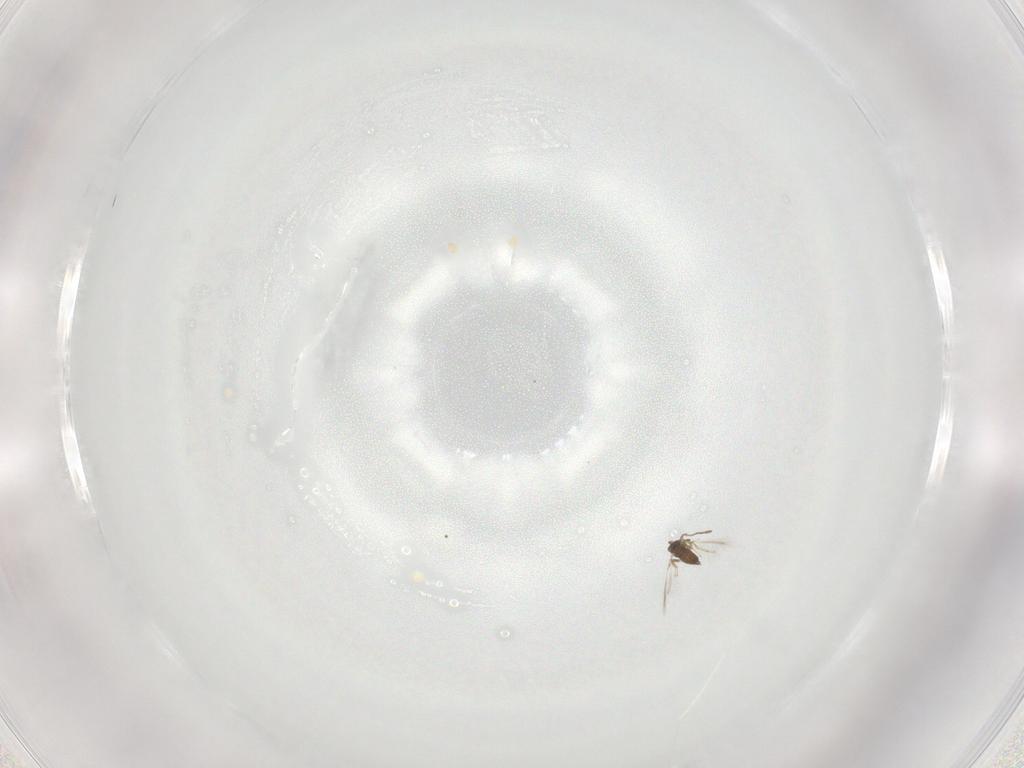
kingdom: Animalia
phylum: Arthropoda
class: Insecta
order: Hymenoptera
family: Mymaridae
